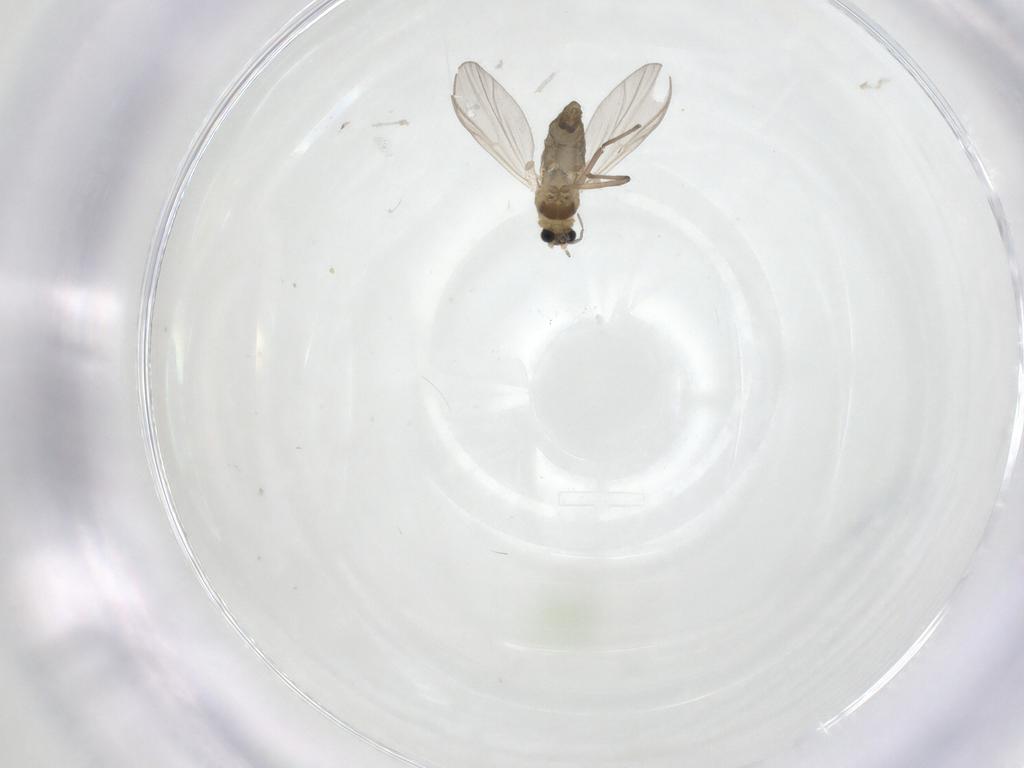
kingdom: Animalia
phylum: Arthropoda
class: Insecta
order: Diptera
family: Chironomidae
